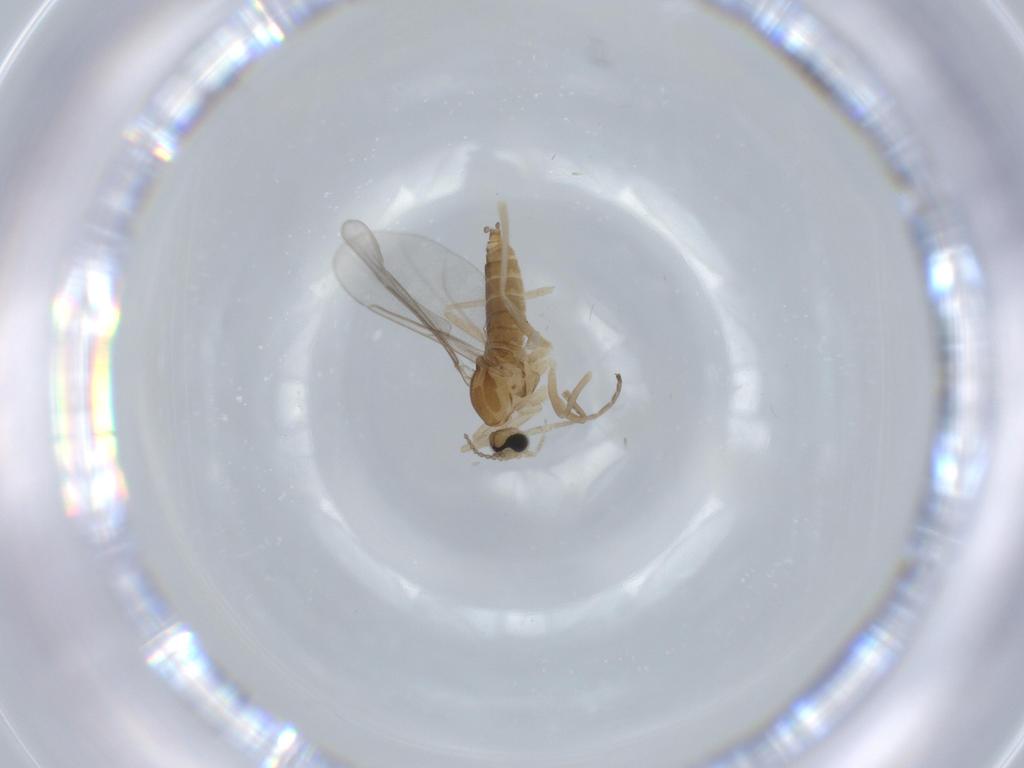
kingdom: Animalia
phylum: Arthropoda
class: Insecta
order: Diptera
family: Cecidomyiidae
